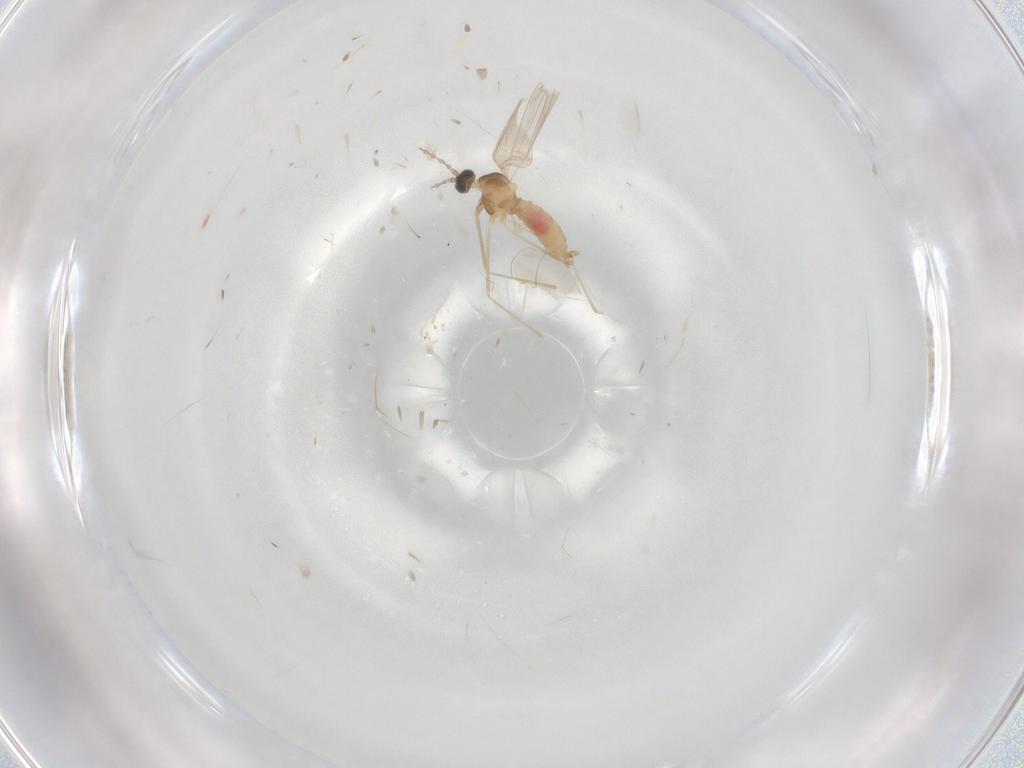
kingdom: Animalia
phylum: Arthropoda
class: Insecta
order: Diptera
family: Cecidomyiidae
